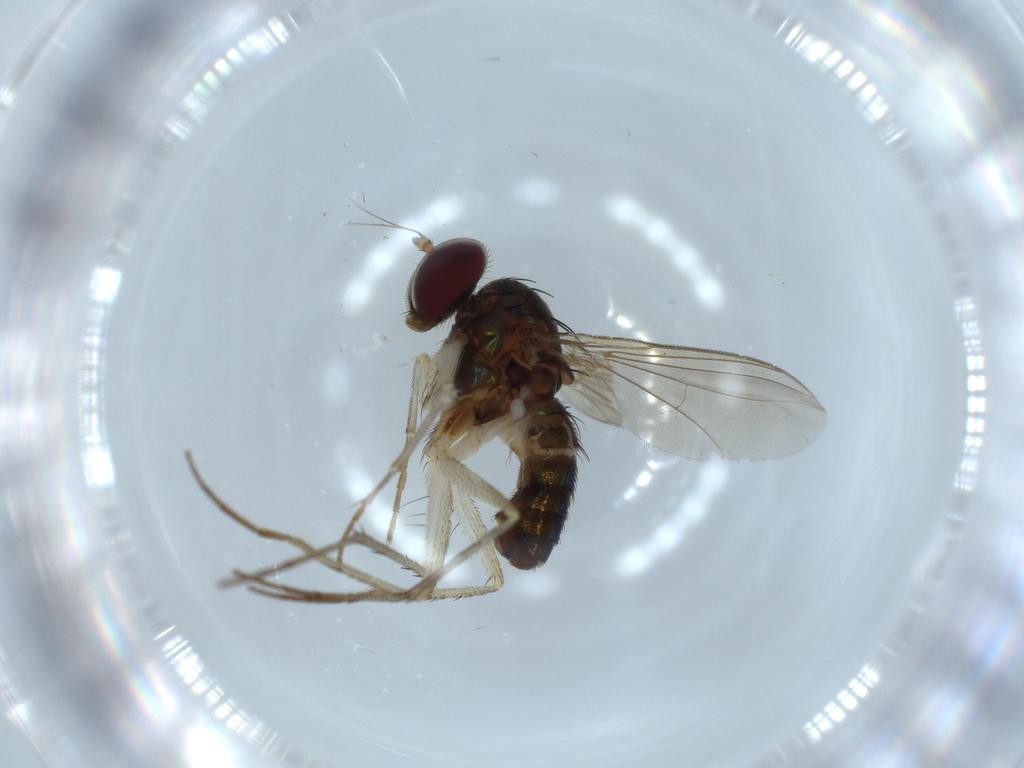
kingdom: Animalia
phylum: Arthropoda
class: Insecta
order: Diptera
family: Dolichopodidae
